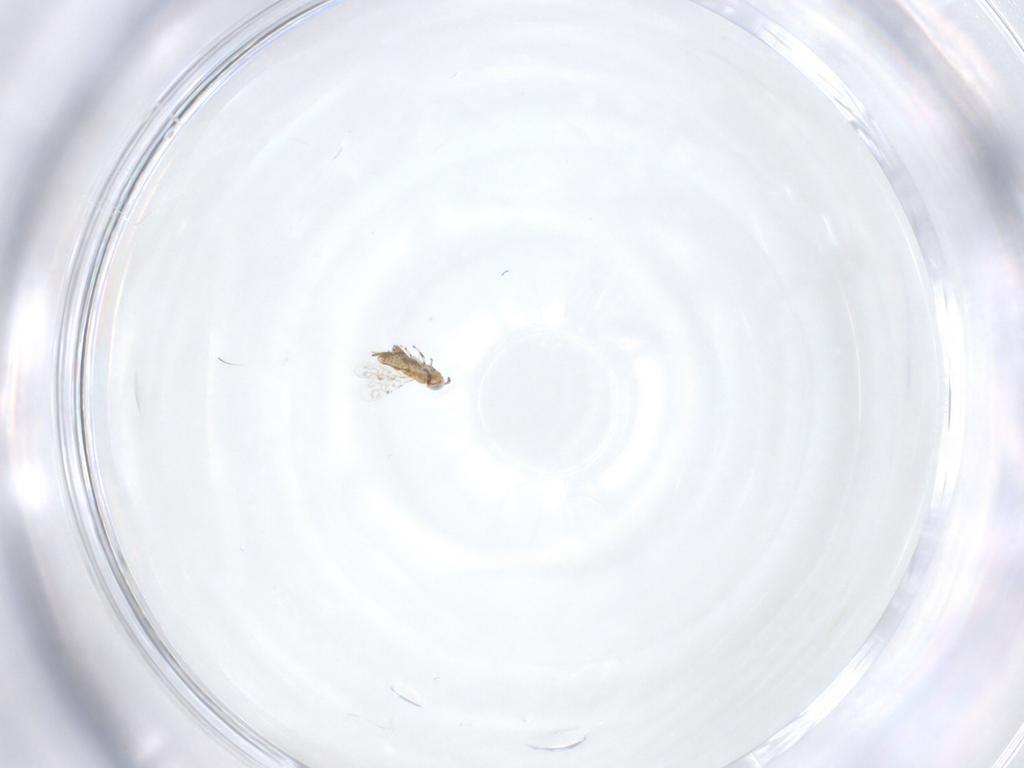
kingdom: Animalia
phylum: Arthropoda
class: Insecta
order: Hymenoptera
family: Aphelinidae
